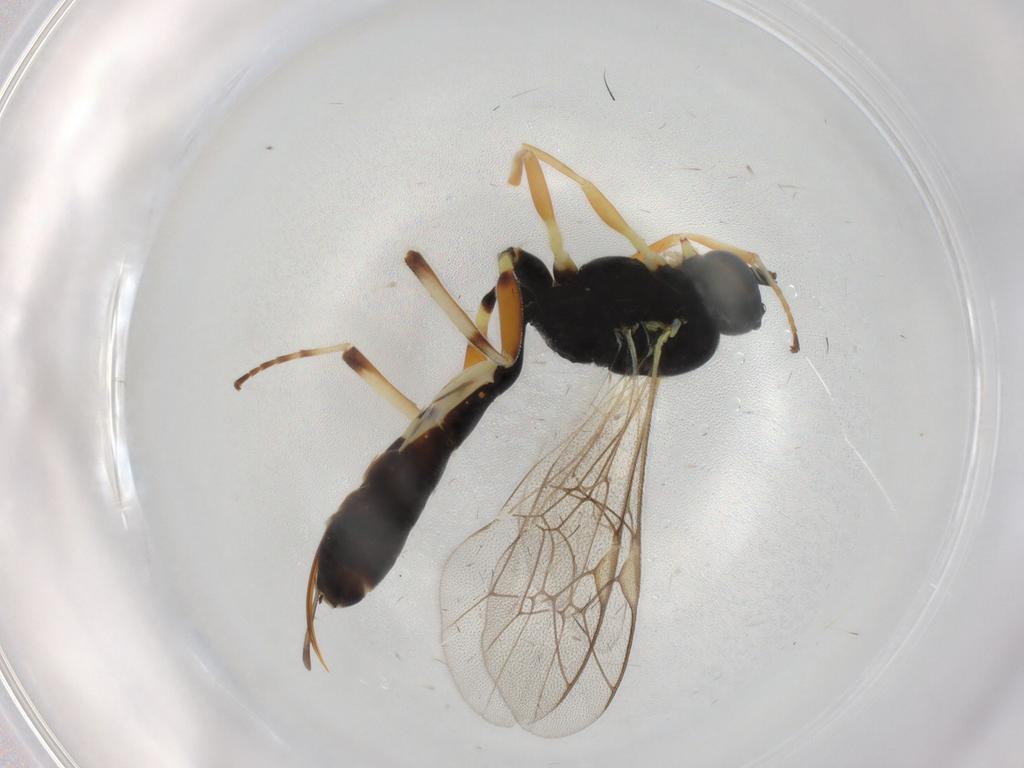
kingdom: Animalia
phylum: Arthropoda
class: Insecta
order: Hymenoptera
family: Ichneumonidae
